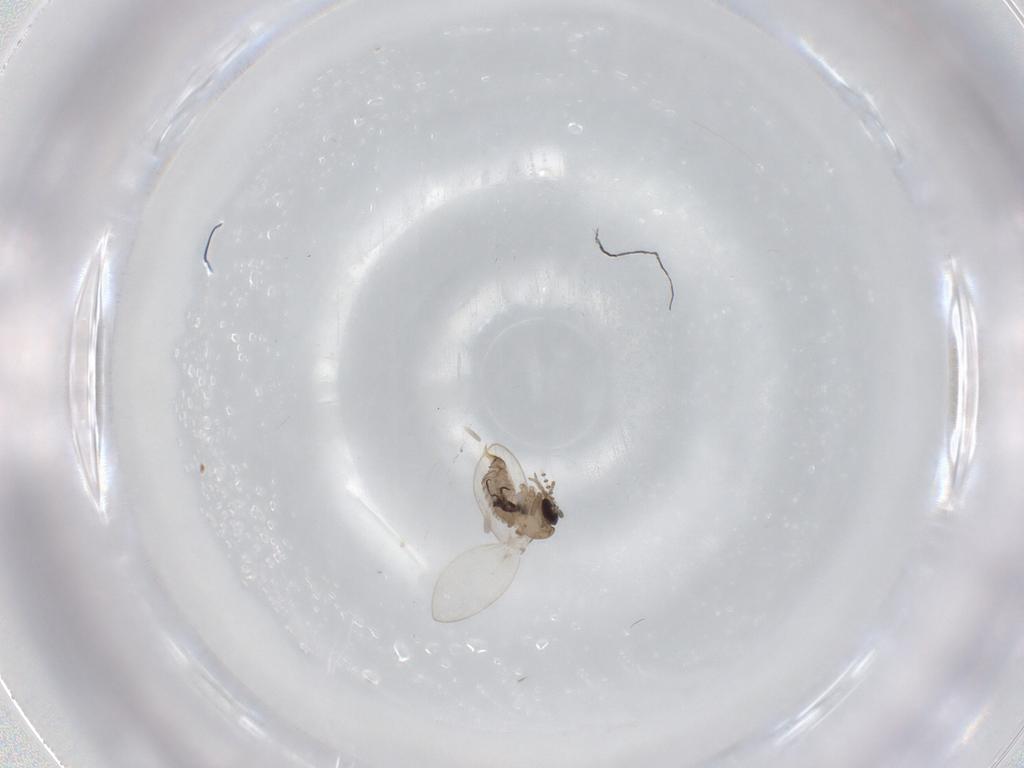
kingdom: Animalia
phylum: Arthropoda
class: Insecta
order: Diptera
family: Psychodidae
